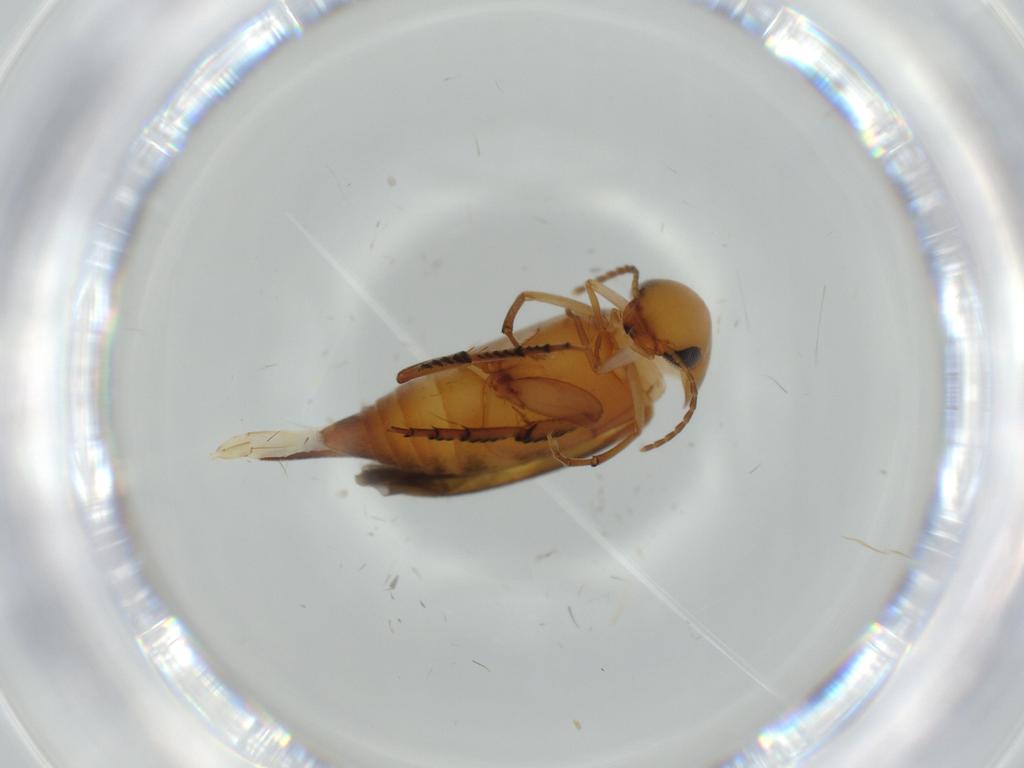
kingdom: Animalia
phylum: Arthropoda
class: Insecta
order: Coleoptera
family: Mordellidae
